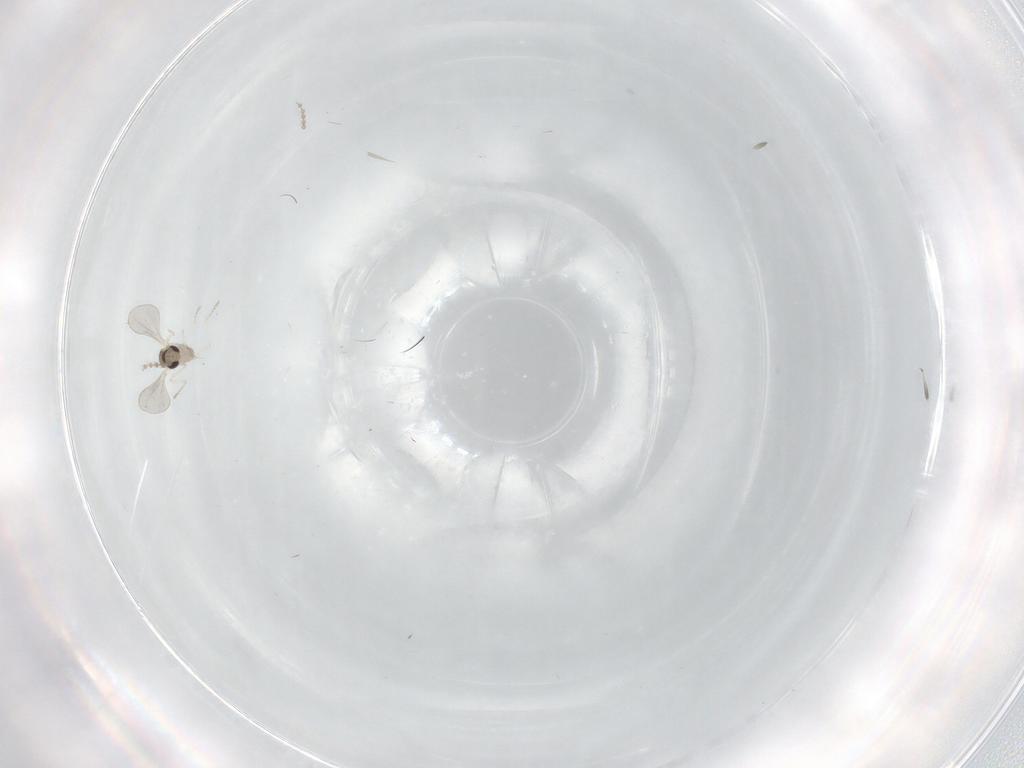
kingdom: Animalia
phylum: Arthropoda
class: Insecta
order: Diptera
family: Cecidomyiidae
